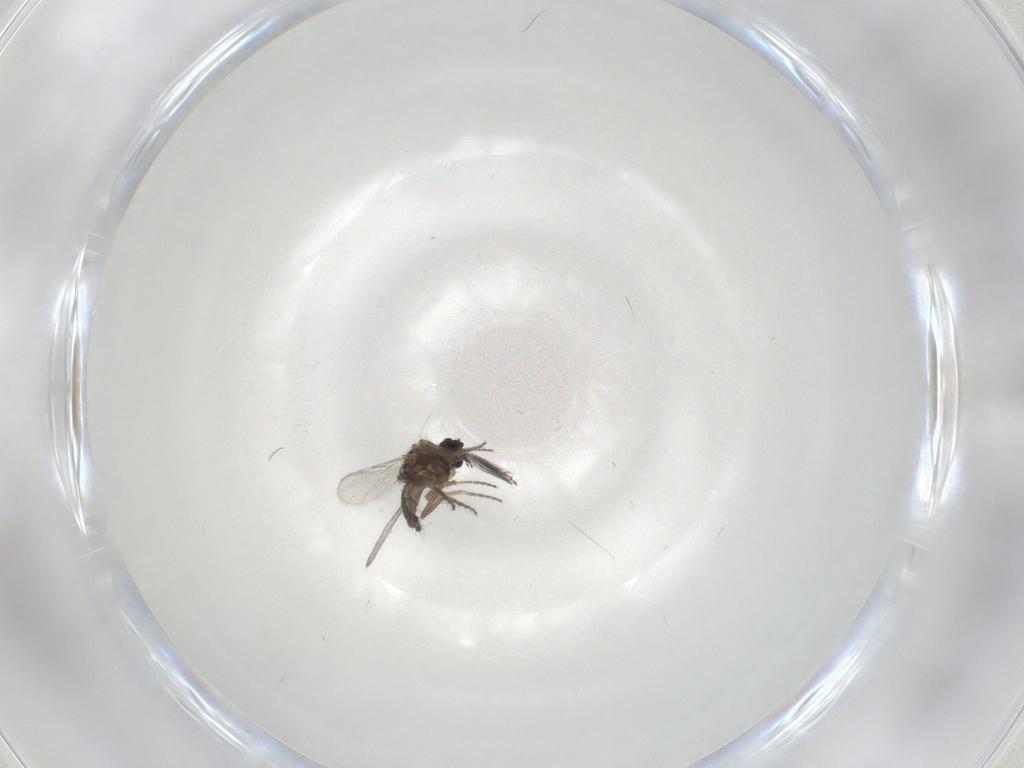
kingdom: Animalia
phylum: Arthropoda
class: Insecta
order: Diptera
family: Ceratopogonidae
